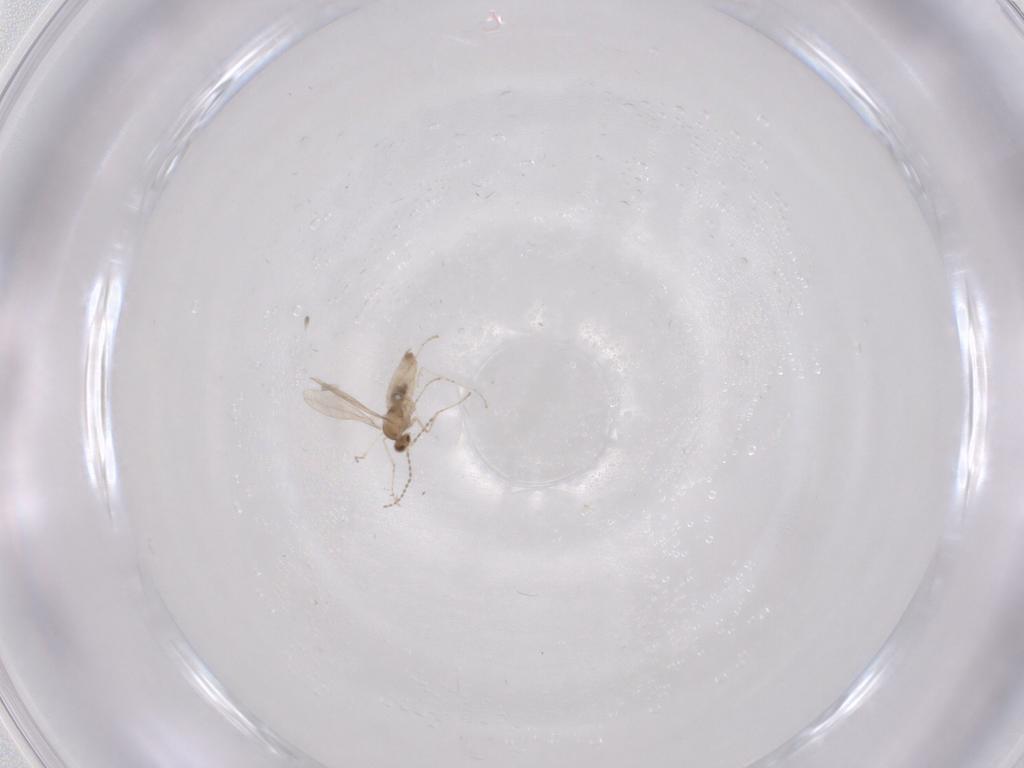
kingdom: Animalia
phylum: Arthropoda
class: Insecta
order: Diptera
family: Cecidomyiidae
